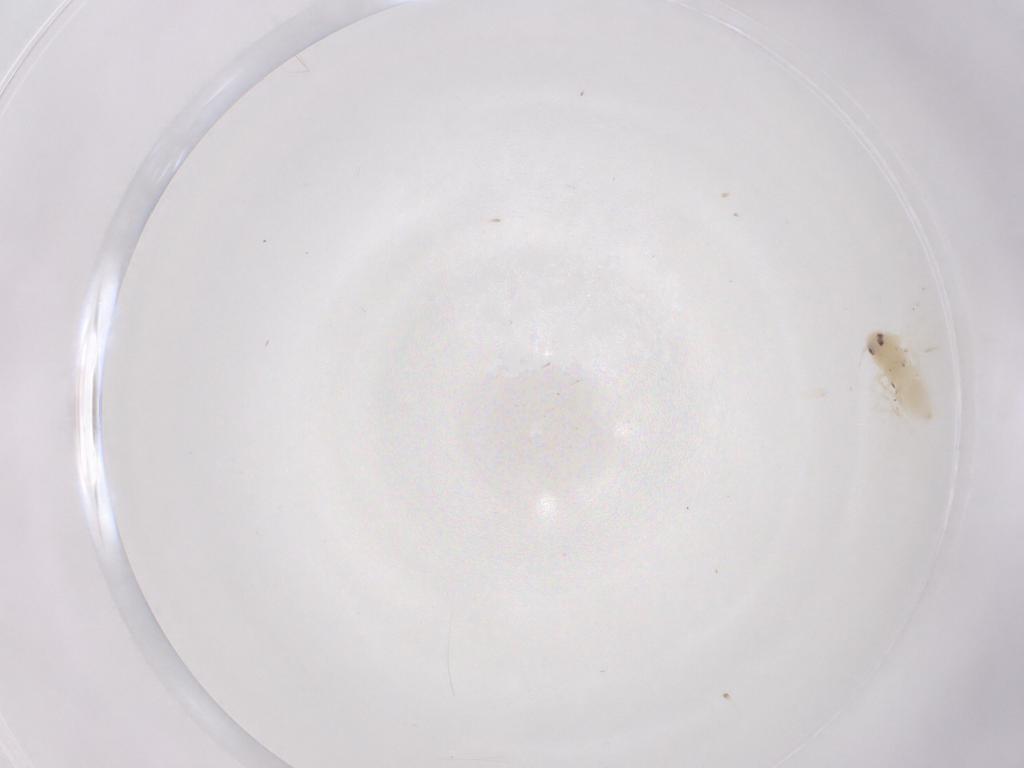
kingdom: Animalia
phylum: Arthropoda
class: Insecta
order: Hemiptera
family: Aleyrodidae
